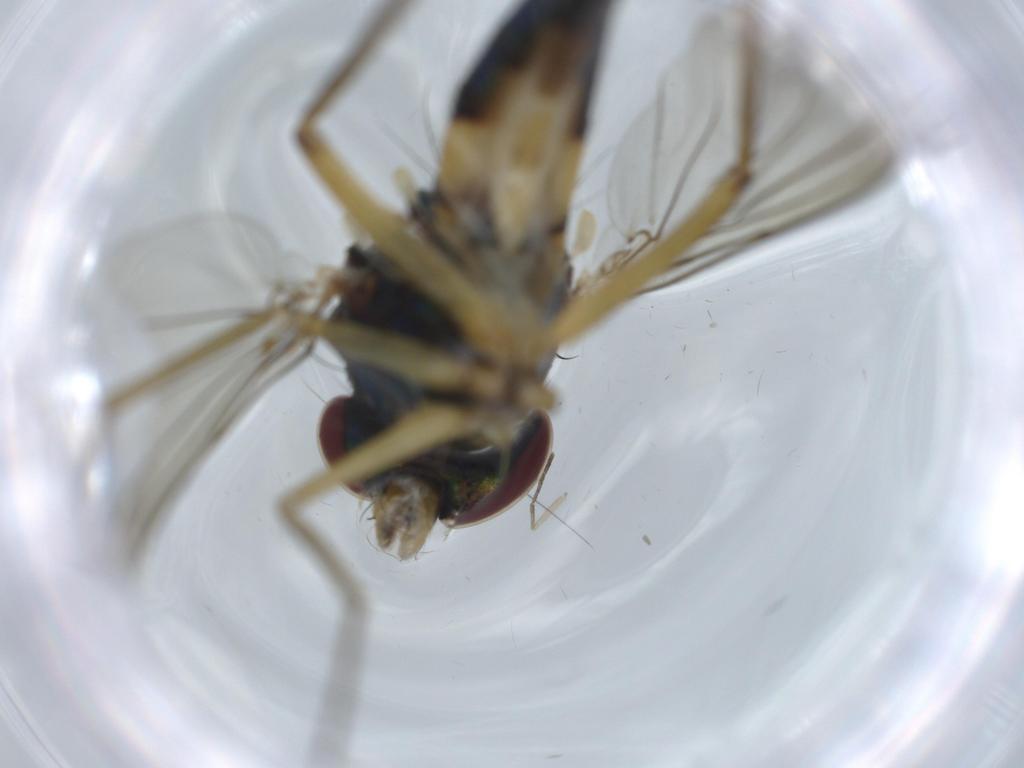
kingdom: Animalia
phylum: Arthropoda
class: Insecta
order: Diptera
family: Dolichopodidae
